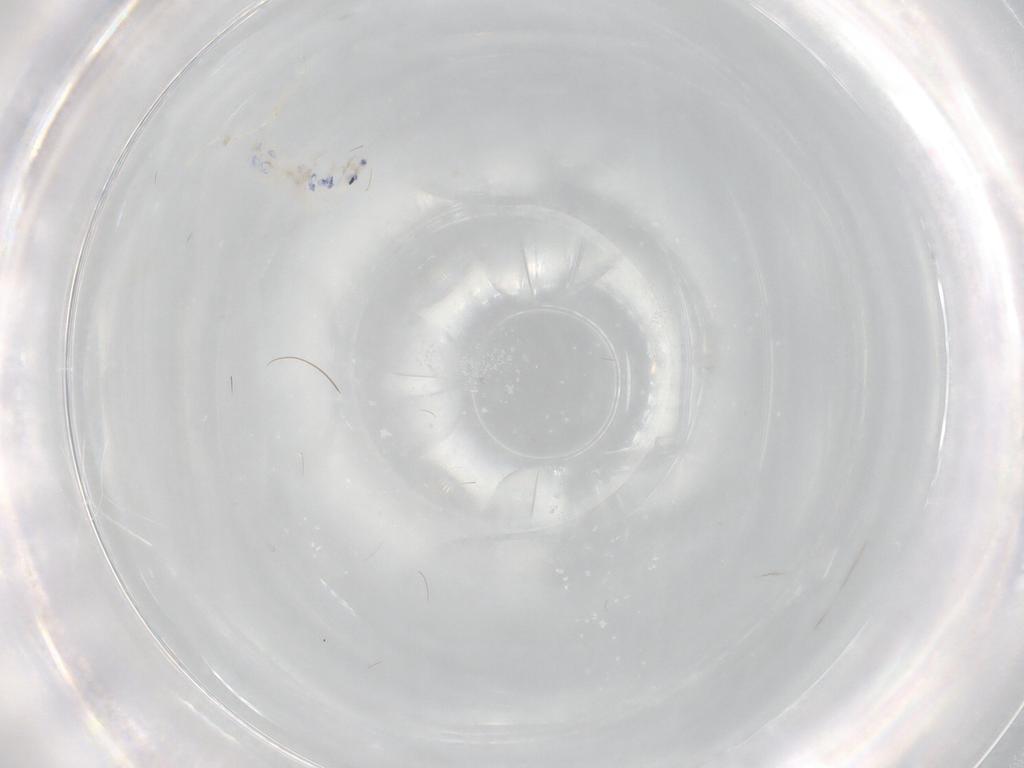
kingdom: Animalia
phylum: Arthropoda
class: Collembola
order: Entomobryomorpha
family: Entomobryidae
